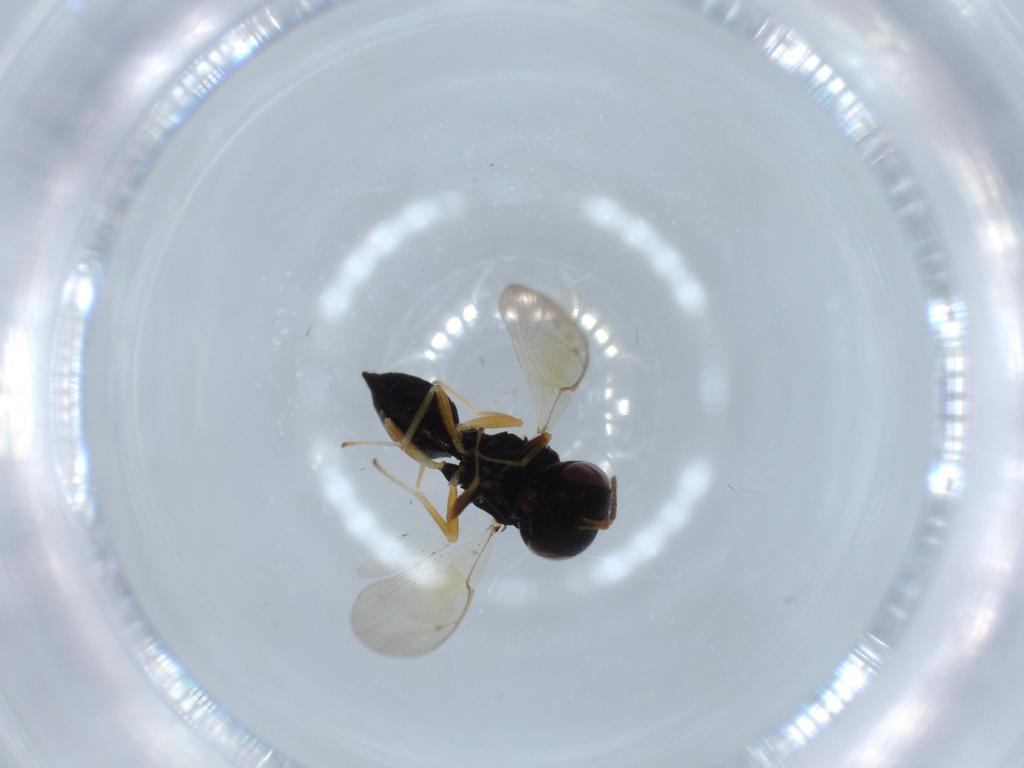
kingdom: Animalia
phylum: Arthropoda
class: Insecta
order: Hymenoptera
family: Pteromalidae
